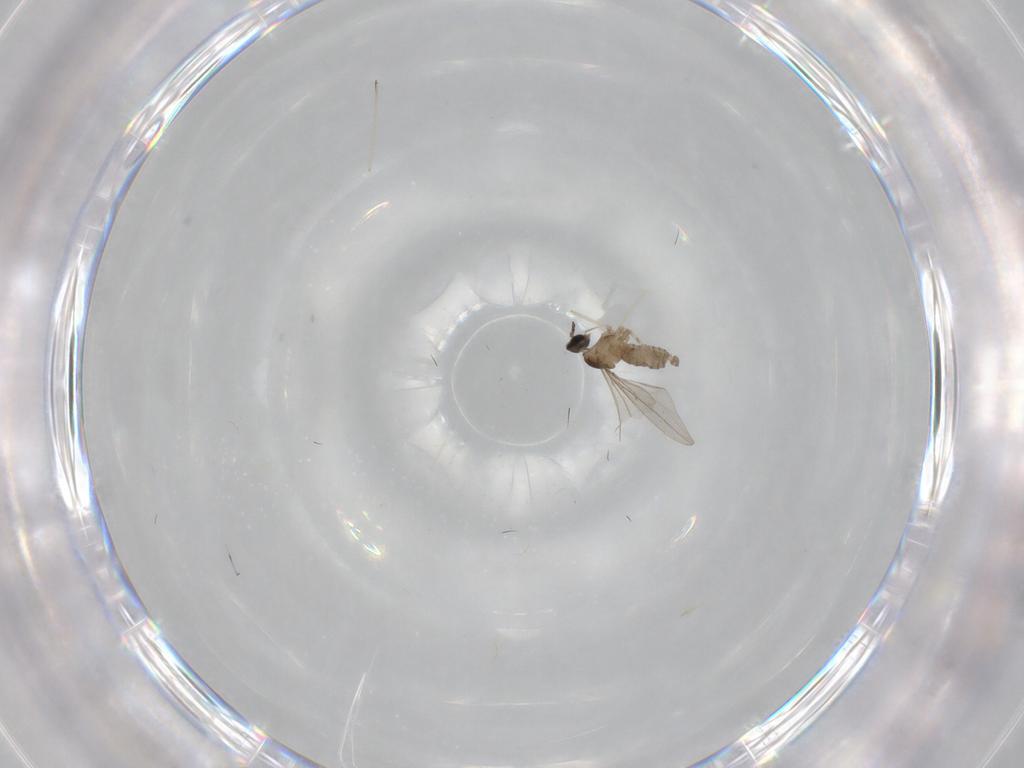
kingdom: Animalia
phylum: Arthropoda
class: Insecta
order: Diptera
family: Cecidomyiidae
